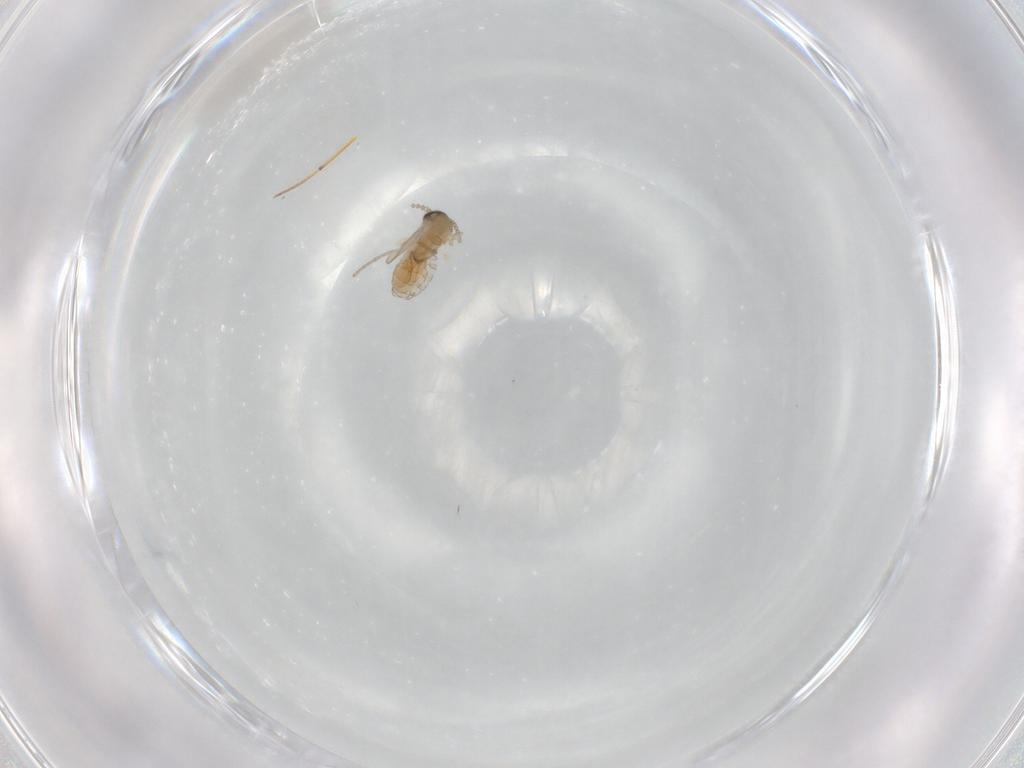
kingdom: Animalia
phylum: Arthropoda
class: Insecta
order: Diptera
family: Psychodidae
